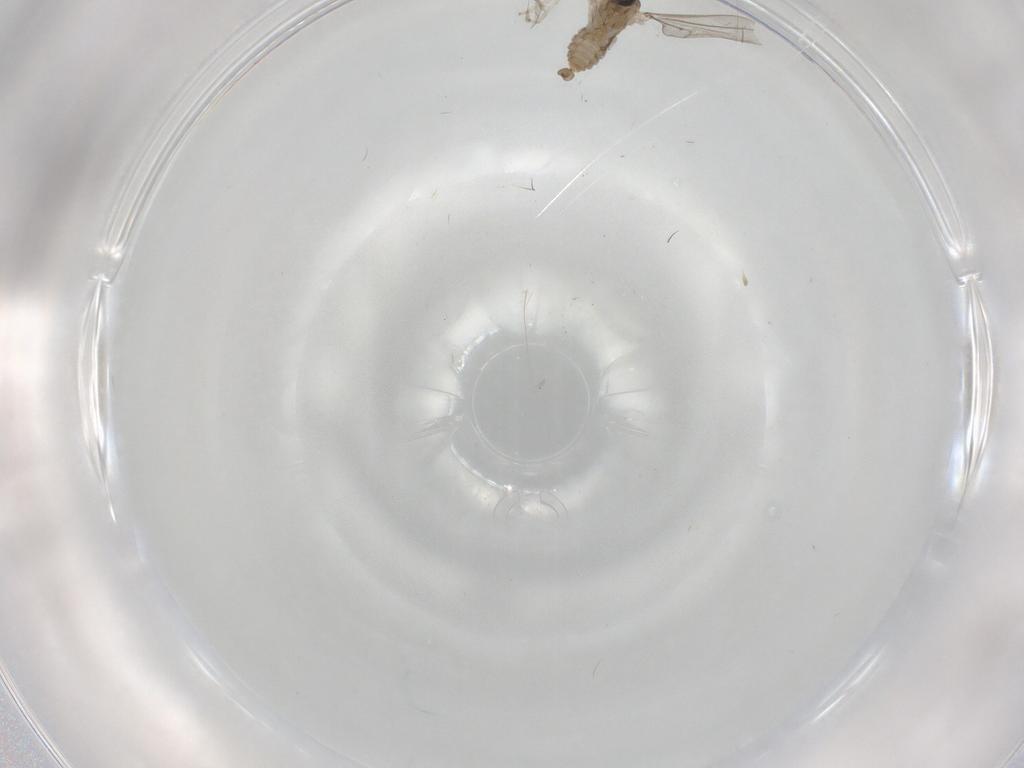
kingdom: Animalia
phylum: Arthropoda
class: Insecta
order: Diptera
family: Cecidomyiidae
